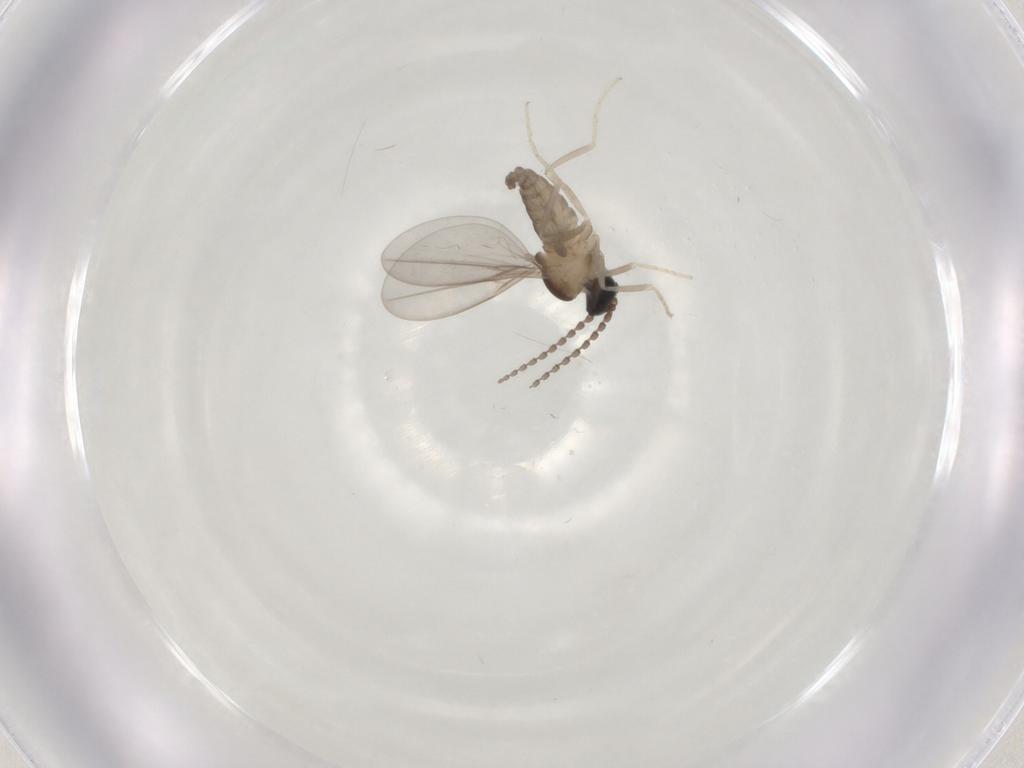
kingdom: Animalia
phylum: Arthropoda
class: Insecta
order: Diptera
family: Cecidomyiidae
